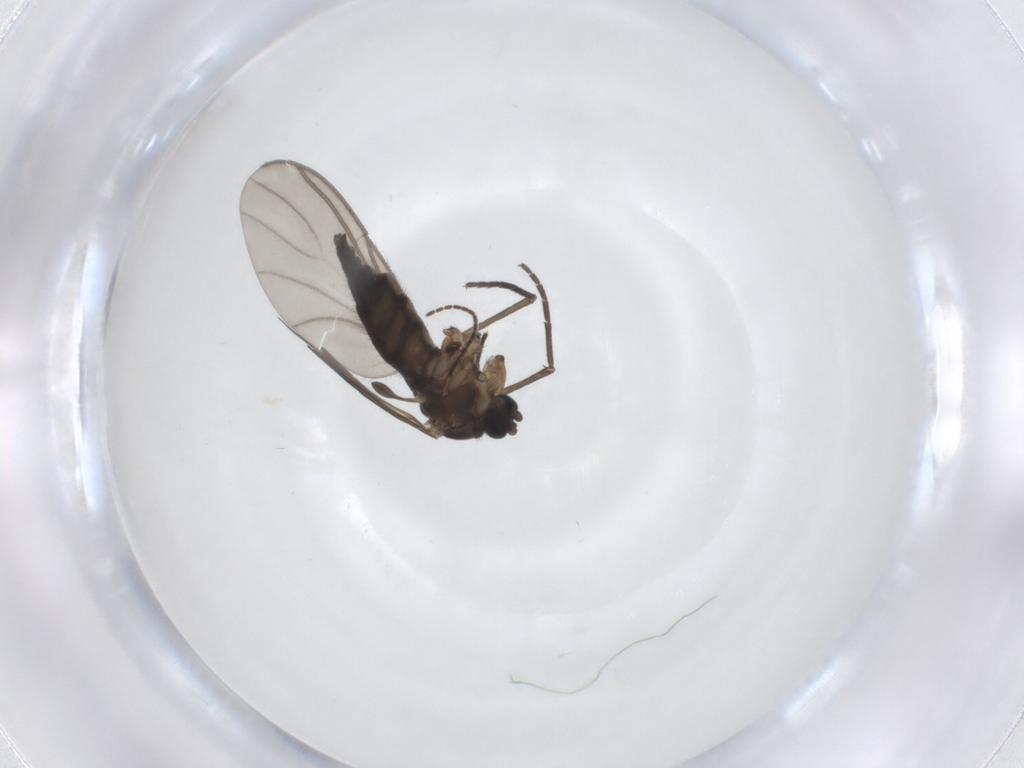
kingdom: Animalia
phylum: Arthropoda
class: Insecta
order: Diptera
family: Sciaridae
